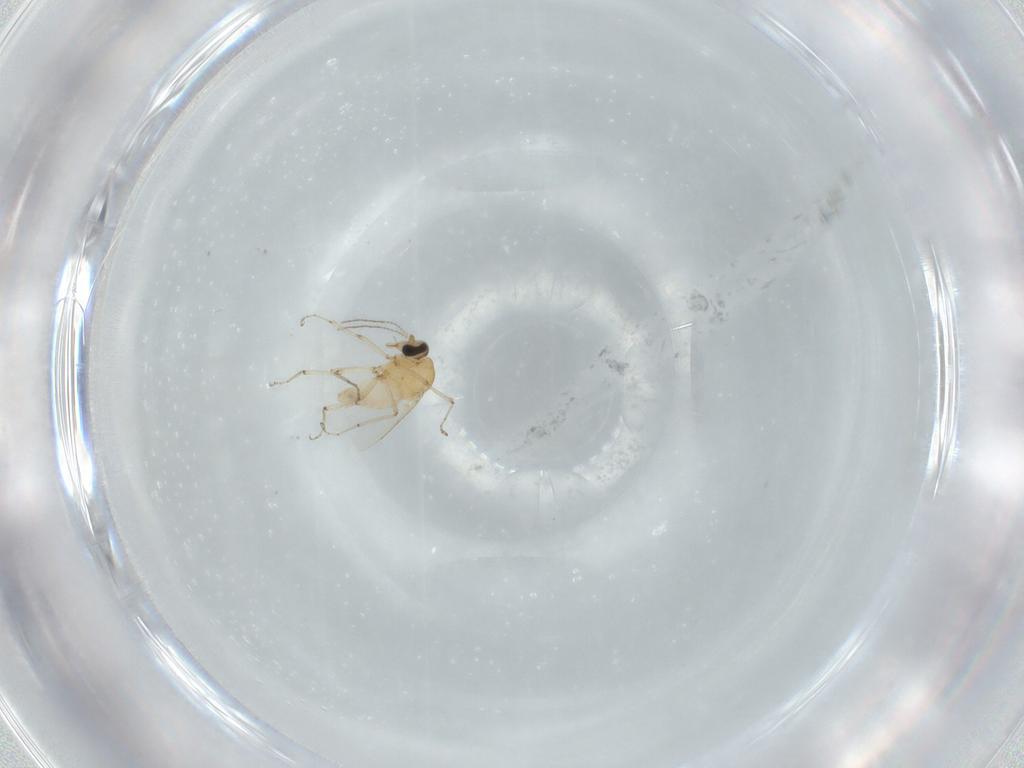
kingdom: Animalia
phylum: Arthropoda
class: Insecta
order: Diptera
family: Ceratopogonidae
